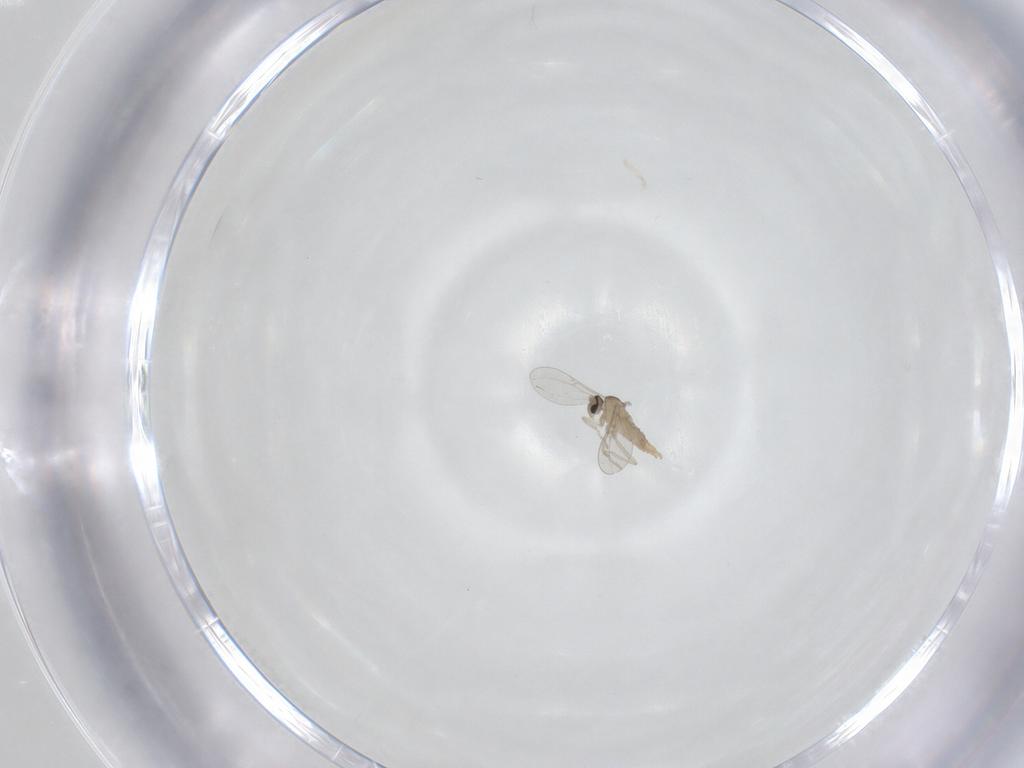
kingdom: Animalia
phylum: Arthropoda
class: Insecta
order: Diptera
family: Cecidomyiidae
